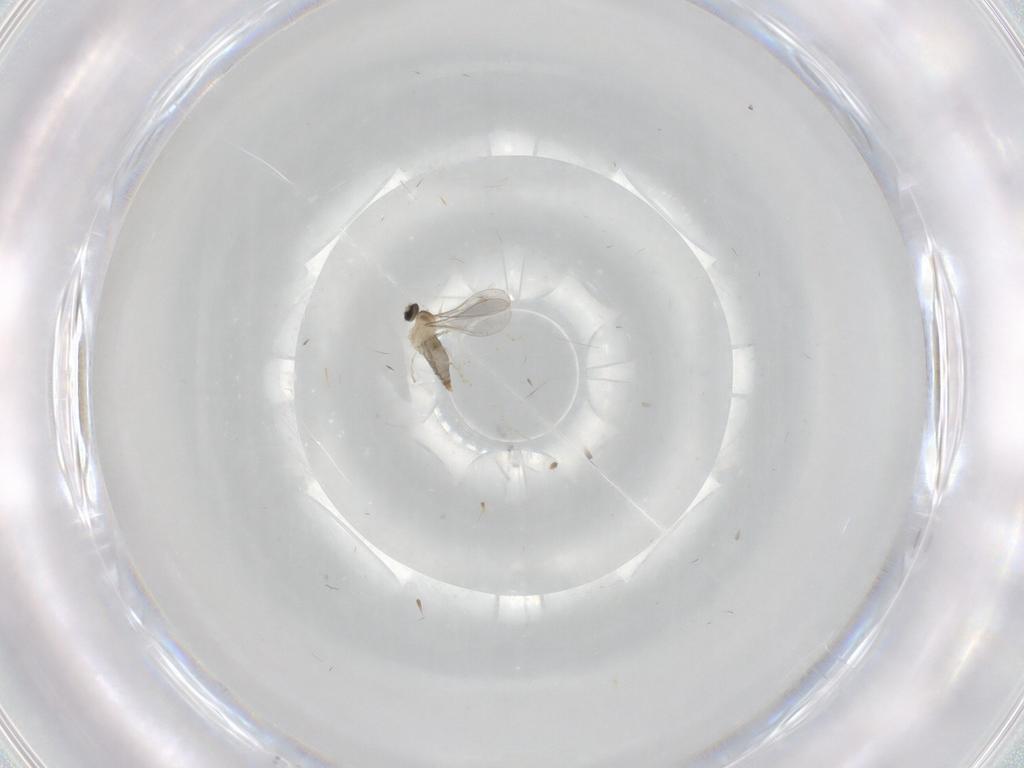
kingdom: Animalia
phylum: Arthropoda
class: Insecta
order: Diptera
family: Cecidomyiidae
